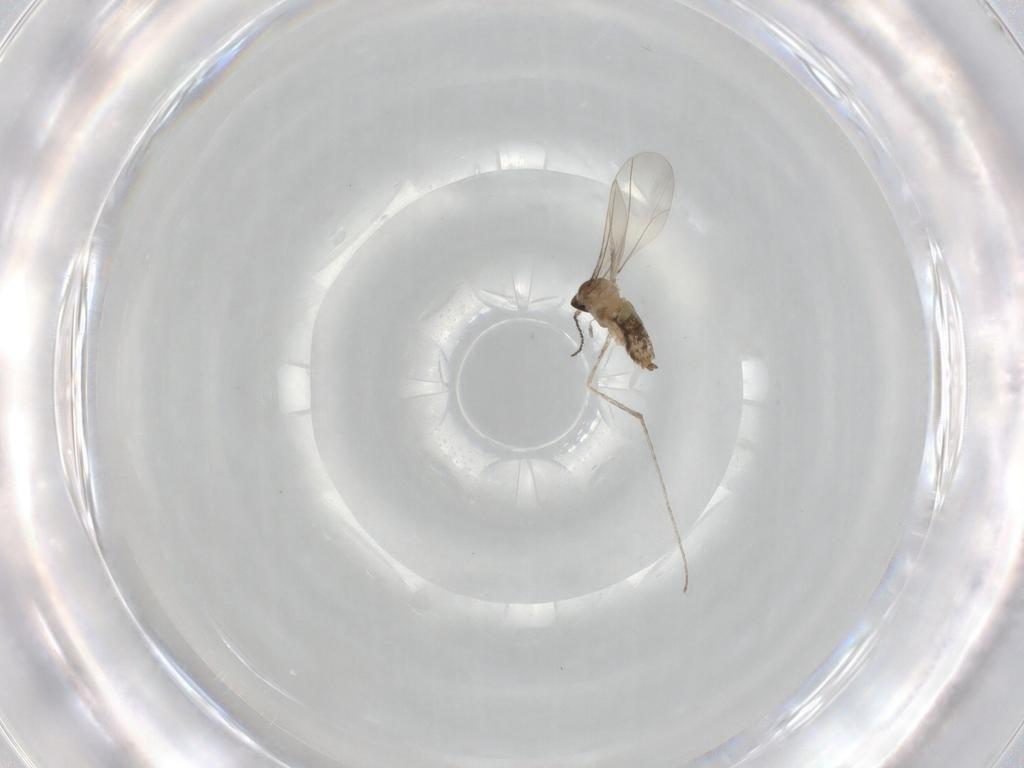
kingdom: Animalia
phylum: Arthropoda
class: Insecta
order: Diptera
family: Cecidomyiidae
